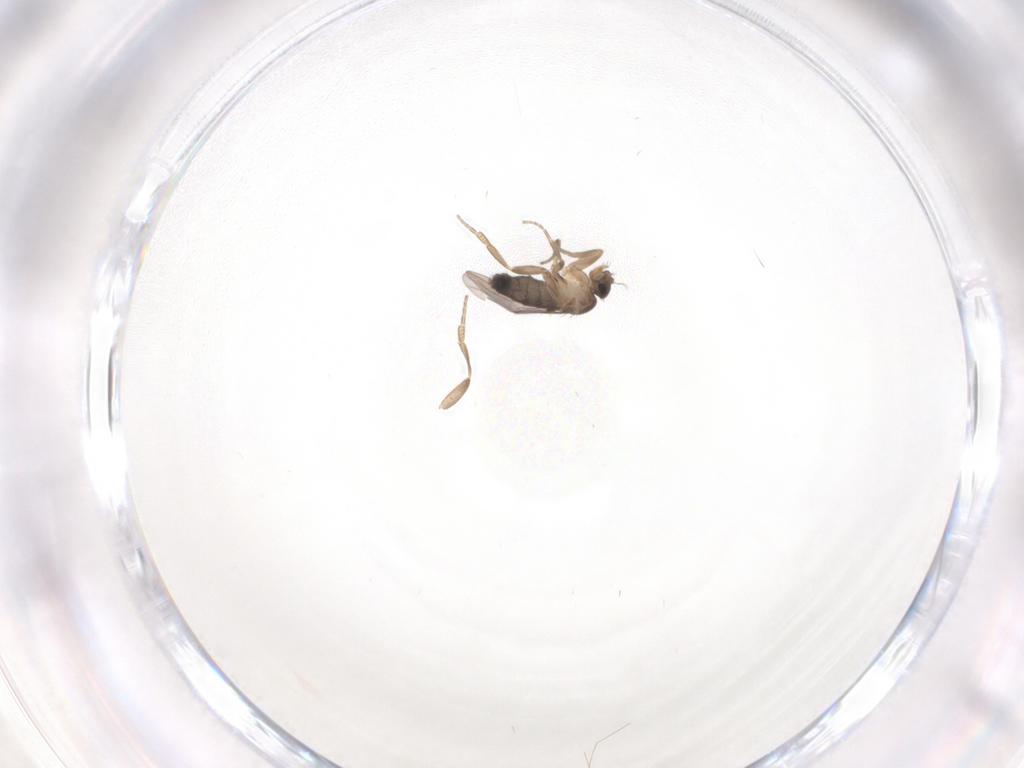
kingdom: Animalia
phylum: Arthropoda
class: Insecta
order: Diptera
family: Phoridae
